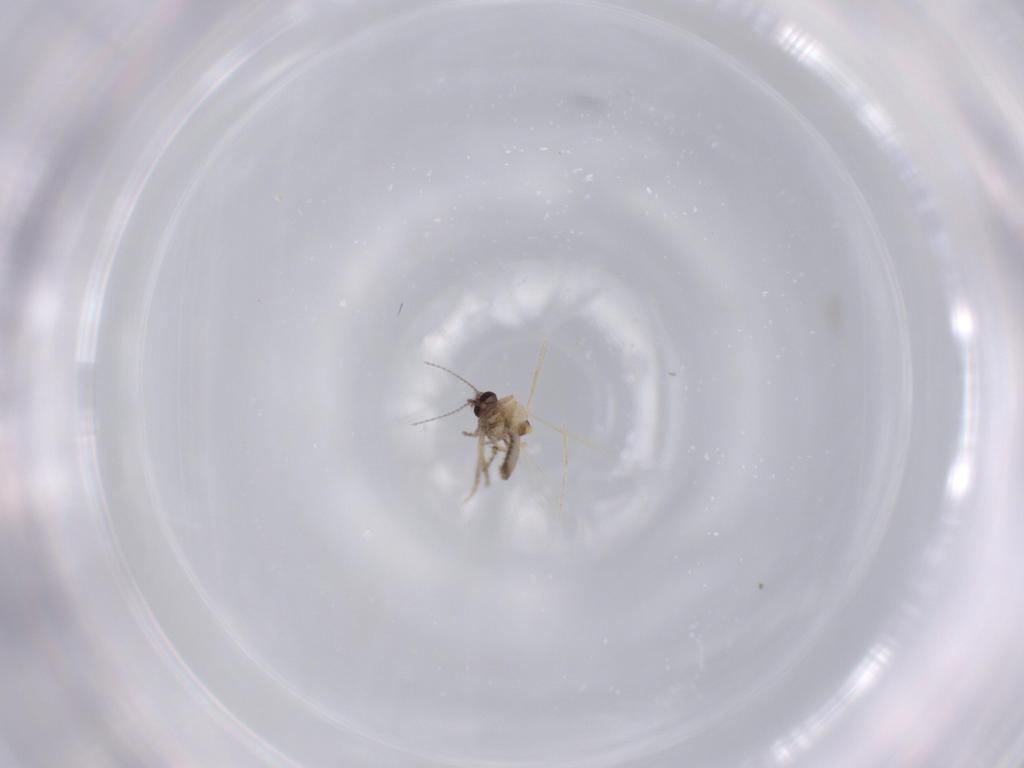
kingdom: Animalia
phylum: Arthropoda
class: Insecta
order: Diptera
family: Ceratopogonidae
